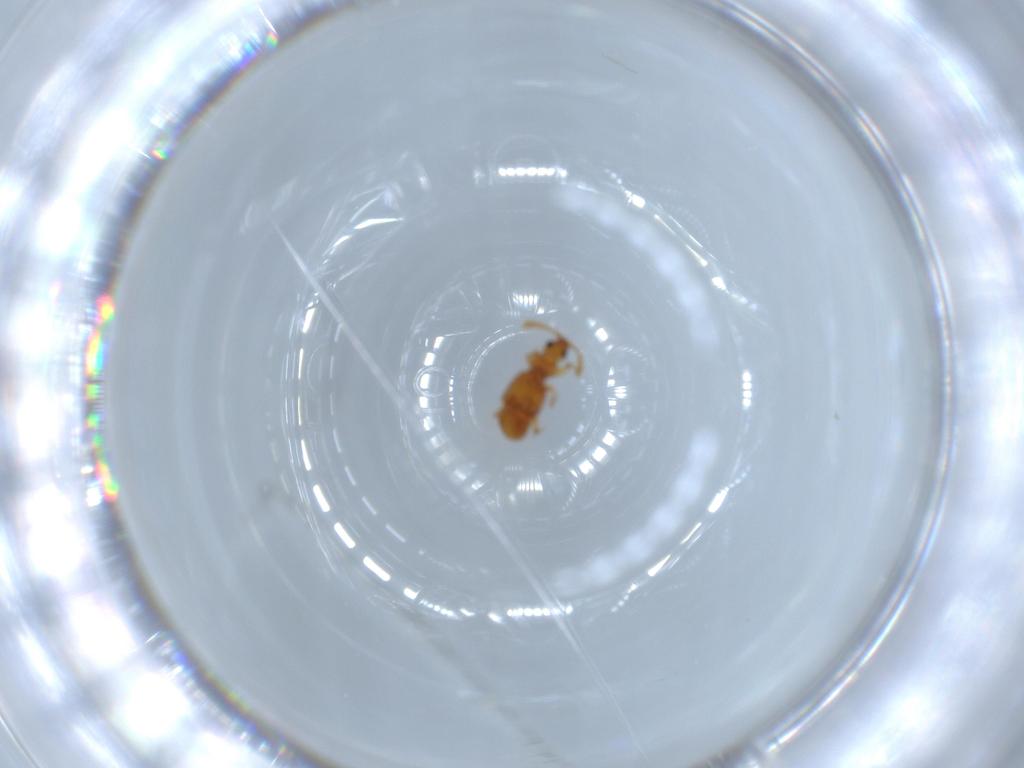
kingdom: Animalia
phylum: Arthropoda
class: Insecta
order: Coleoptera
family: Staphylinidae
